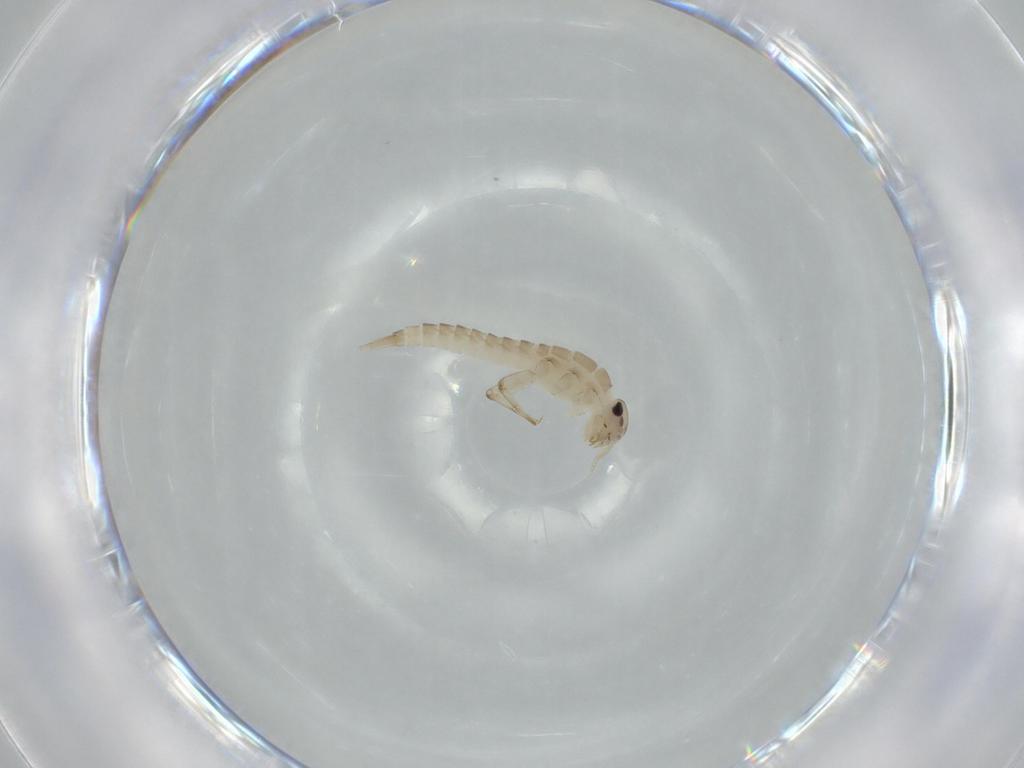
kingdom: Animalia
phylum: Arthropoda
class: Insecta
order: Ephemeroptera
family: Baetidae
